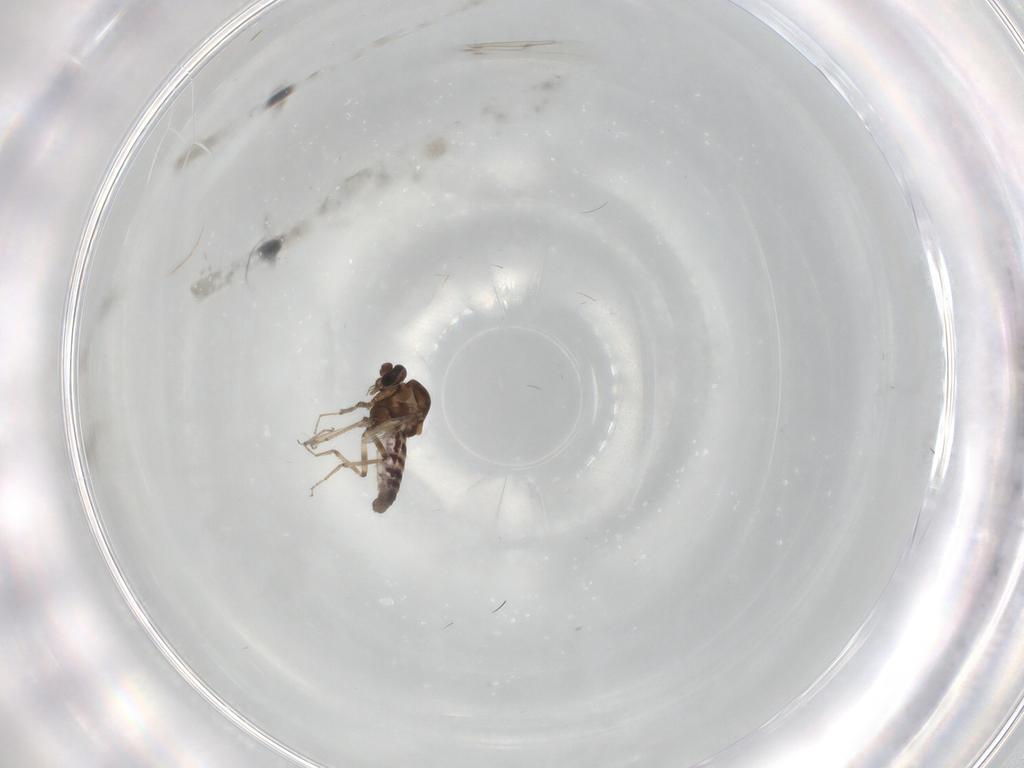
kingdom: Animalia
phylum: Arthropoda
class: Insecta
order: Diptera
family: Ceratopogonidae
